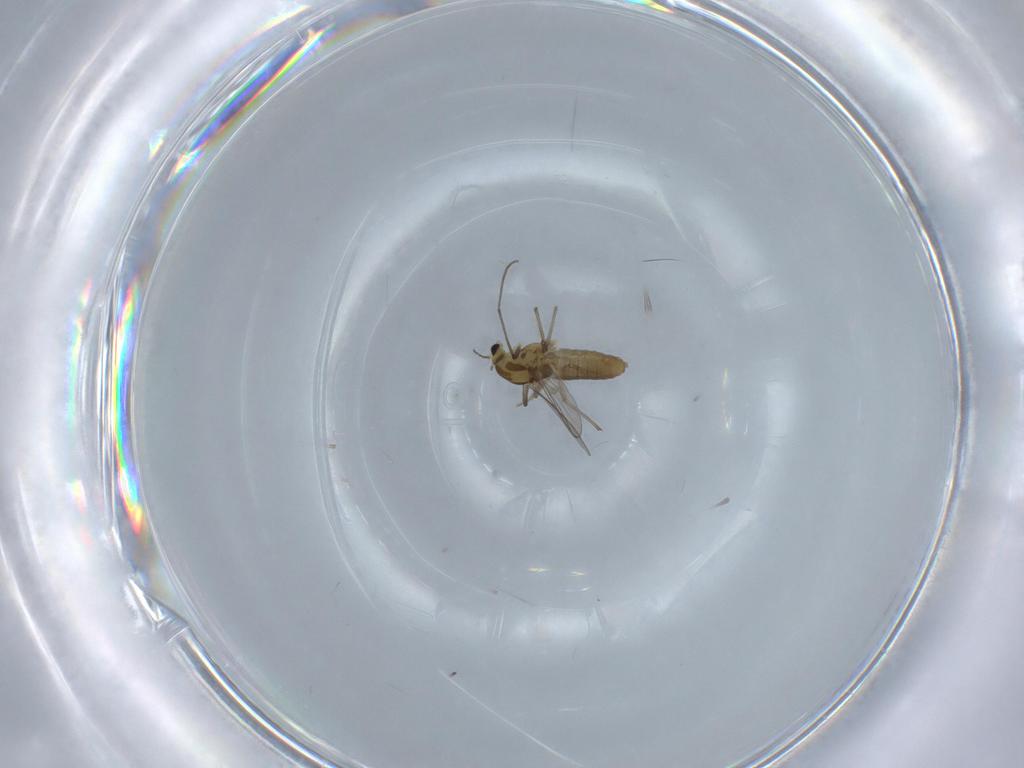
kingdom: Animalia
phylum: Arthropoda
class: Insecta
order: Diptera
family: Chironomidae
